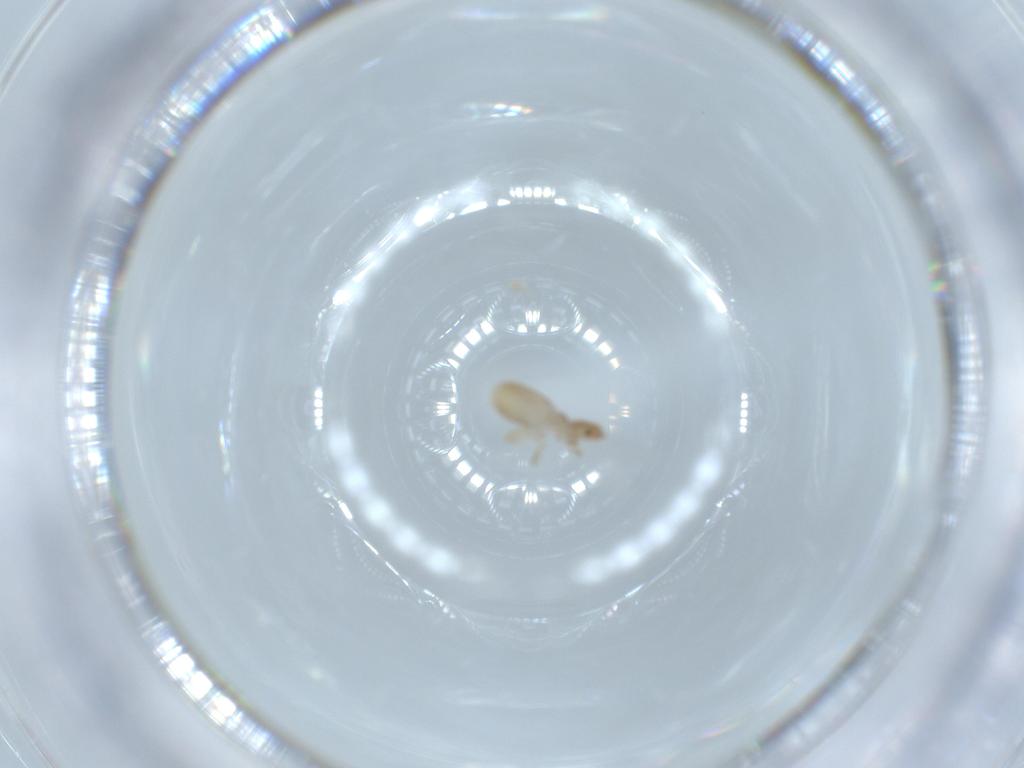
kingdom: Animalia
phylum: Arthropoda
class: Insecta
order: Psocodea
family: Liposcelididae
